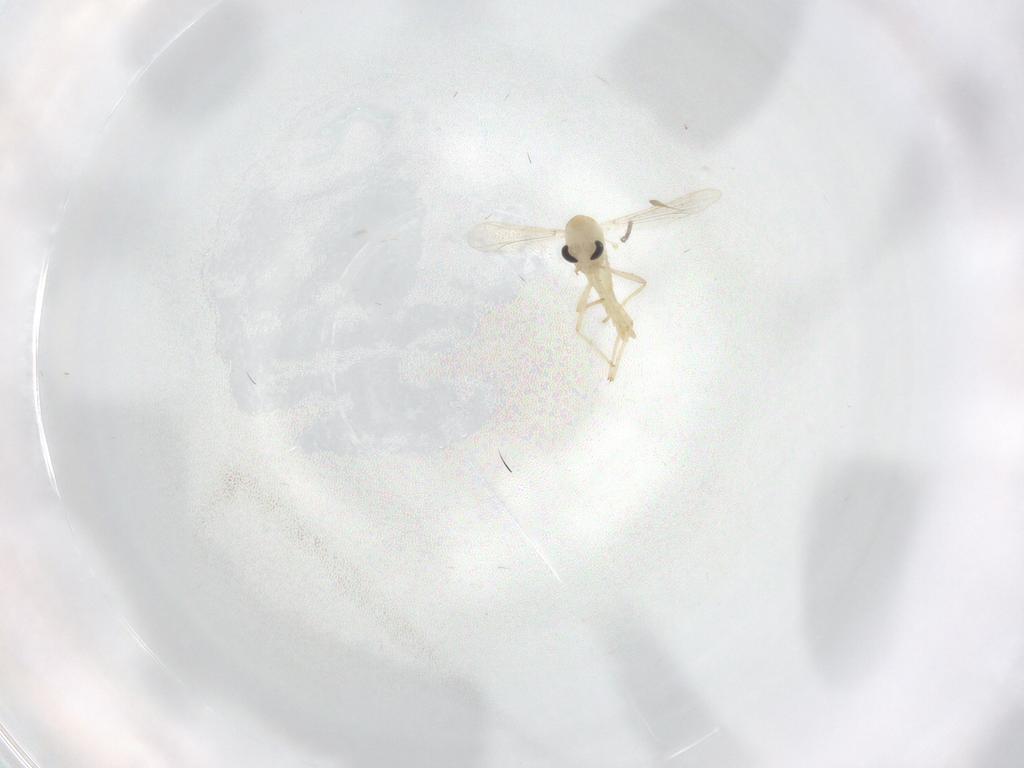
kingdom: Animalia
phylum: Arthropoda
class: Insecta
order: Diptera
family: Chironomidae
